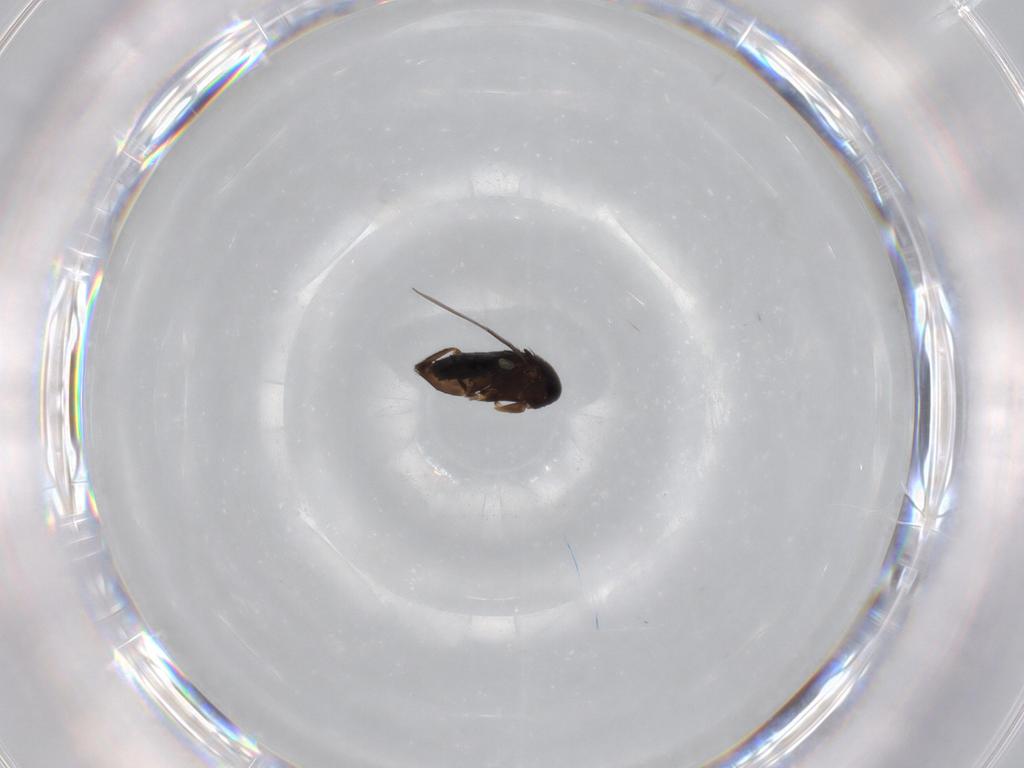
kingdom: Animalia
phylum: Arthropoda
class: Insecta
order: Diptera
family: Phoridae
